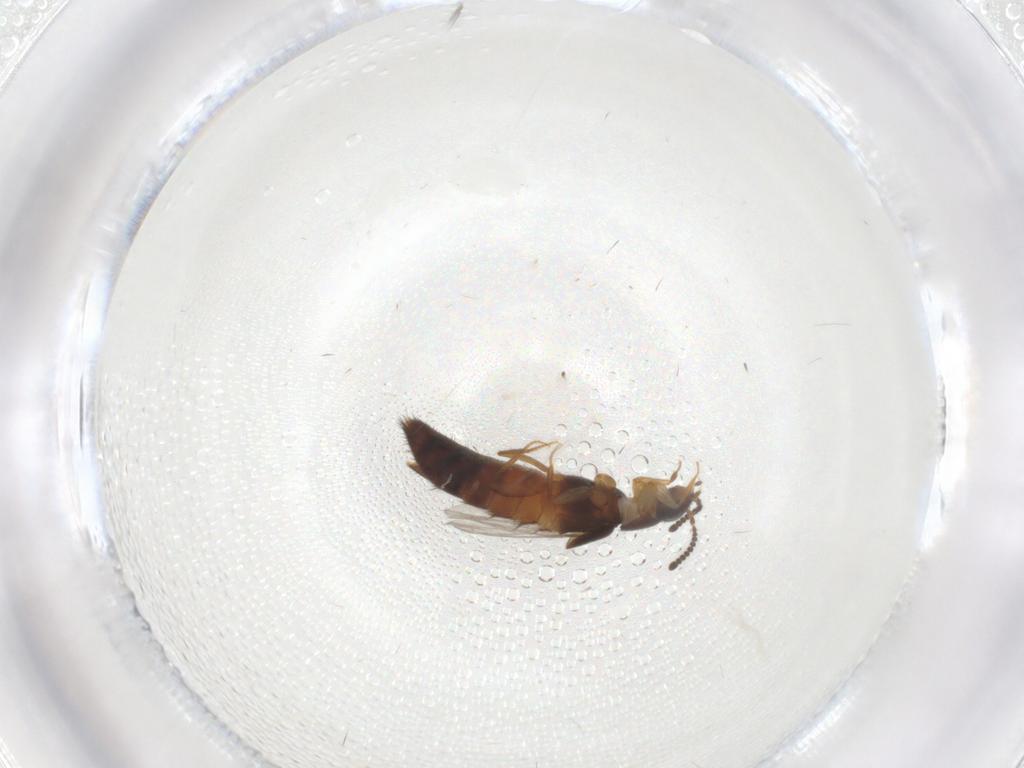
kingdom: Animalia
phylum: Arthropoda
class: Insecta
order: Coleoptera
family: Staphylinidae
